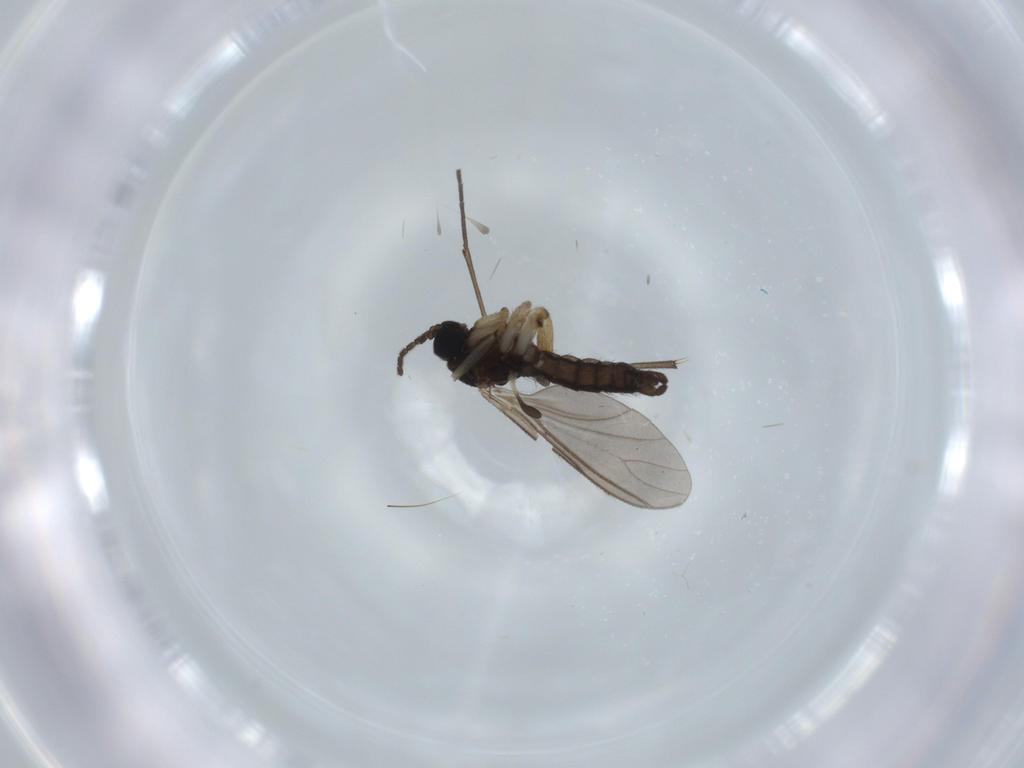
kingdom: Animalia
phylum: Arthropoda
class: Insecta
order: Diptera
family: Sciaridae
